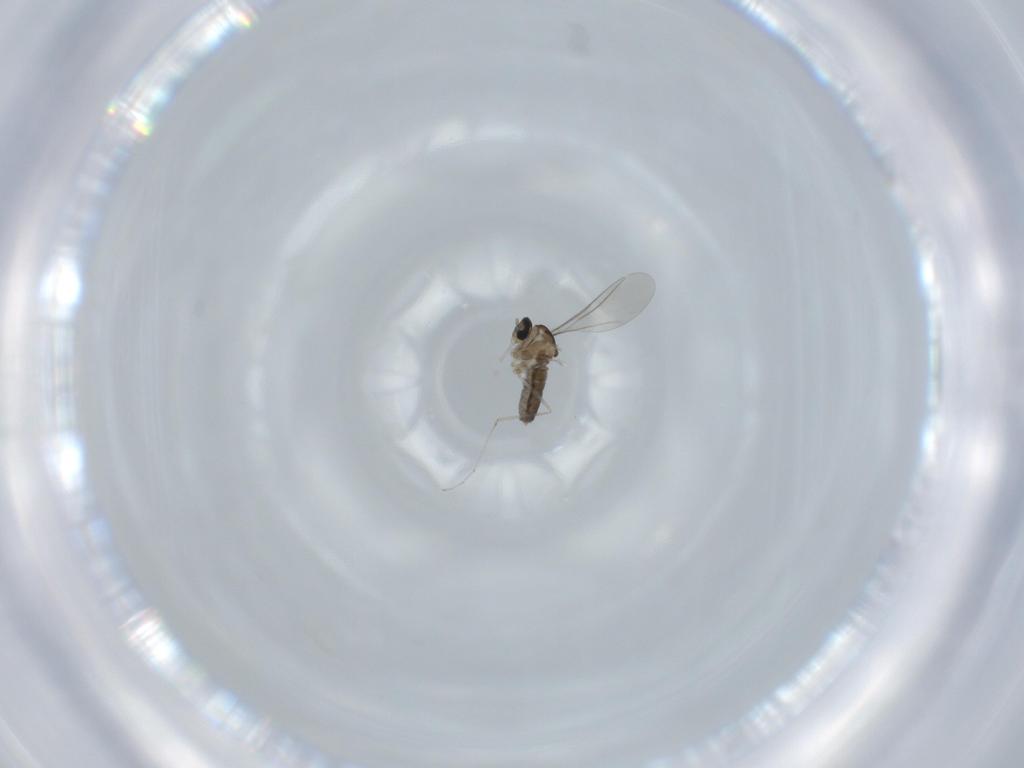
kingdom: Animalia
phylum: Arthropoda
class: Insecta
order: Diptera
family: Cecidomyiidae
